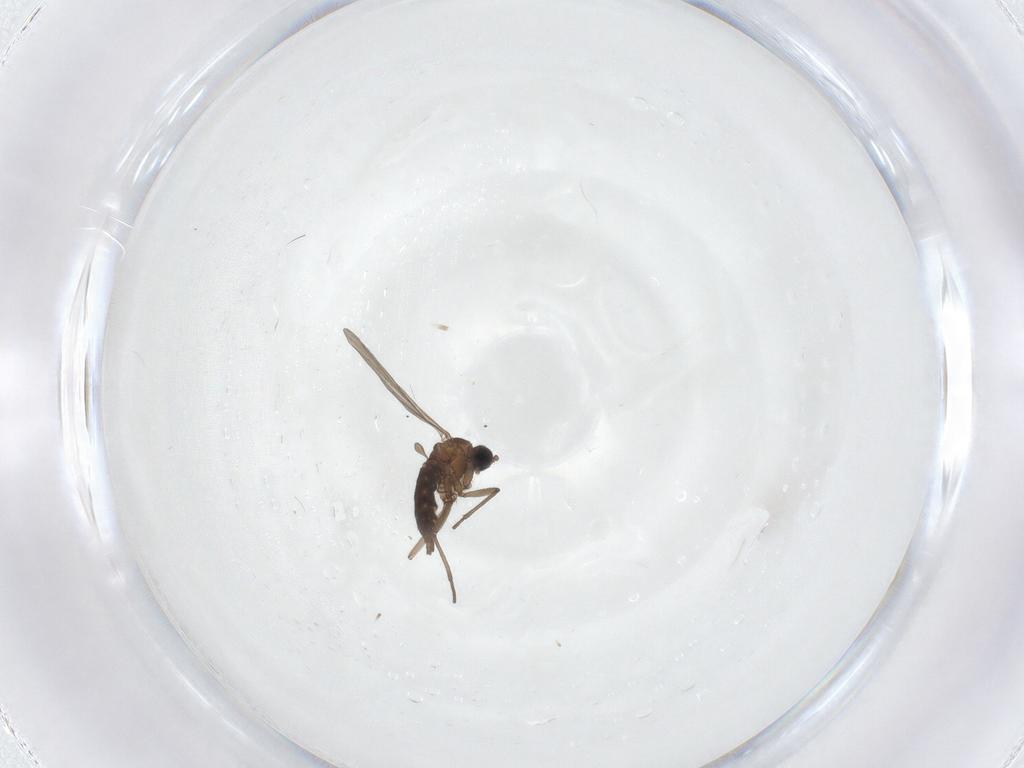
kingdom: Animalia
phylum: Arthropoda
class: Insecta
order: Diptera
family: Sciaridae
